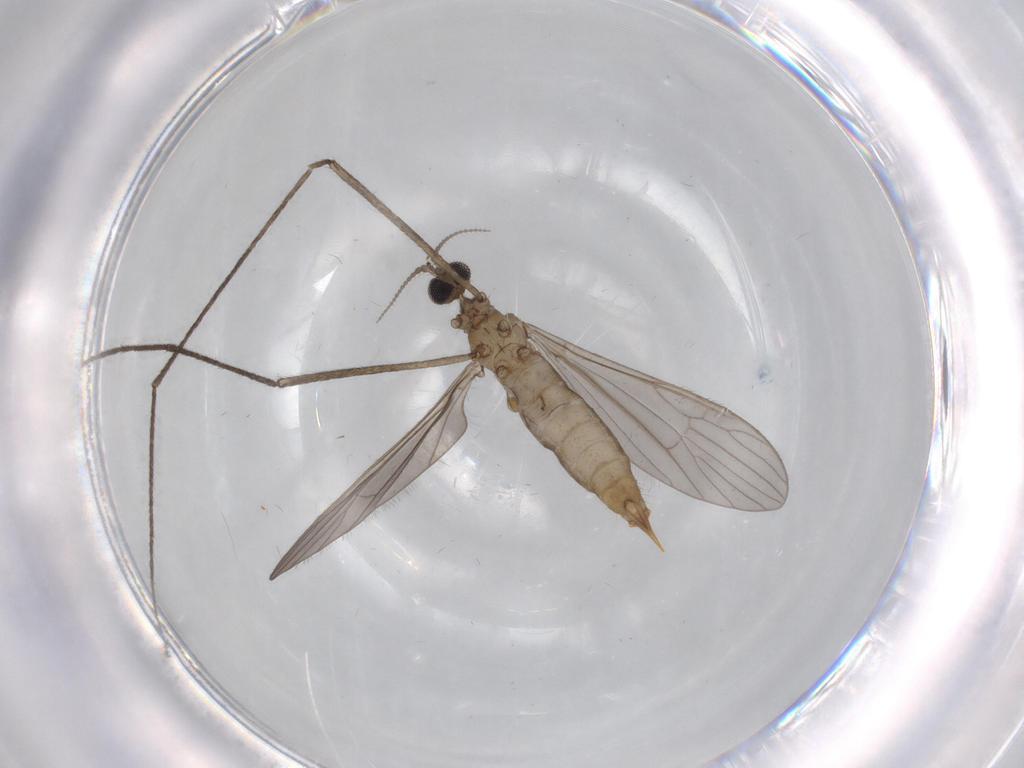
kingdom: Animalia
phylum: Arthropoda
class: Insecta
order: Diptera
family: Limoniidae
